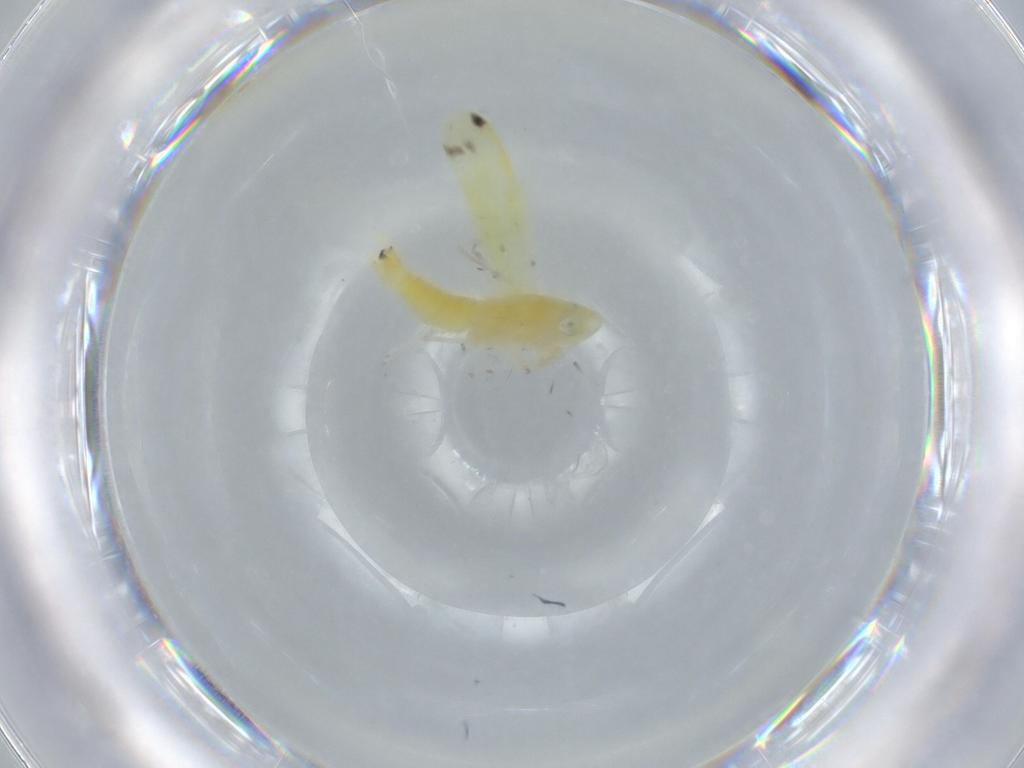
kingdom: Animalia
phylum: Arthropoda
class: Insecta
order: Hemiptera
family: Cicadellidae
